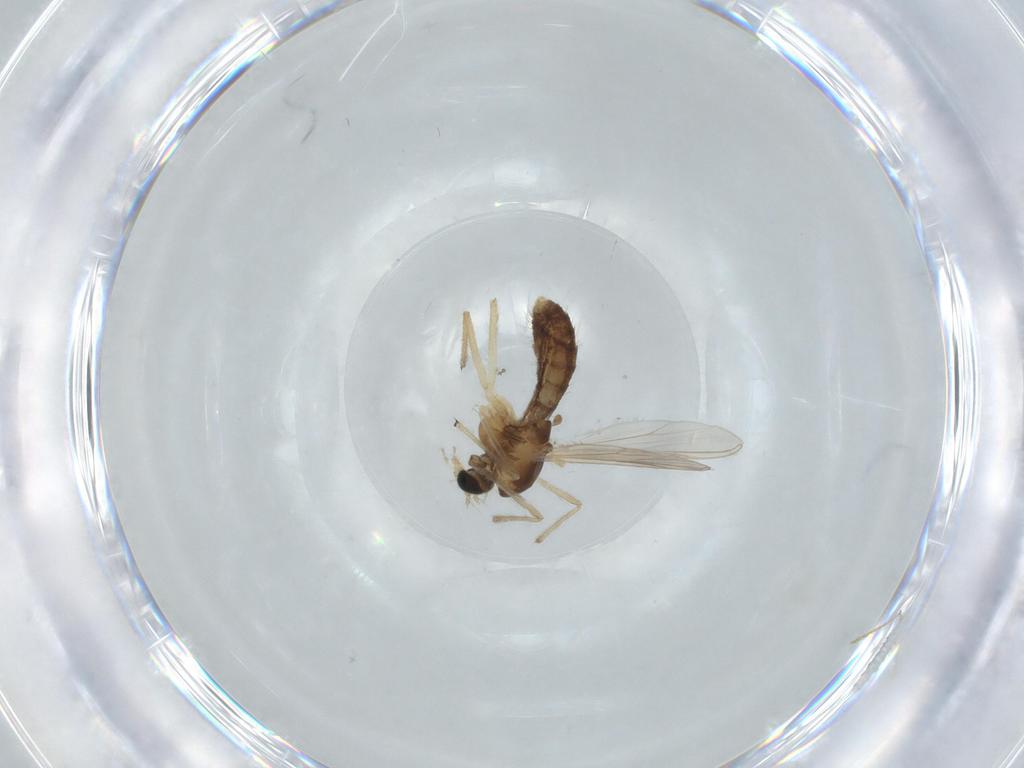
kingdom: Animalia
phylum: Arthropoda
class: Insecta
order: Diptera
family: Chironomidae
